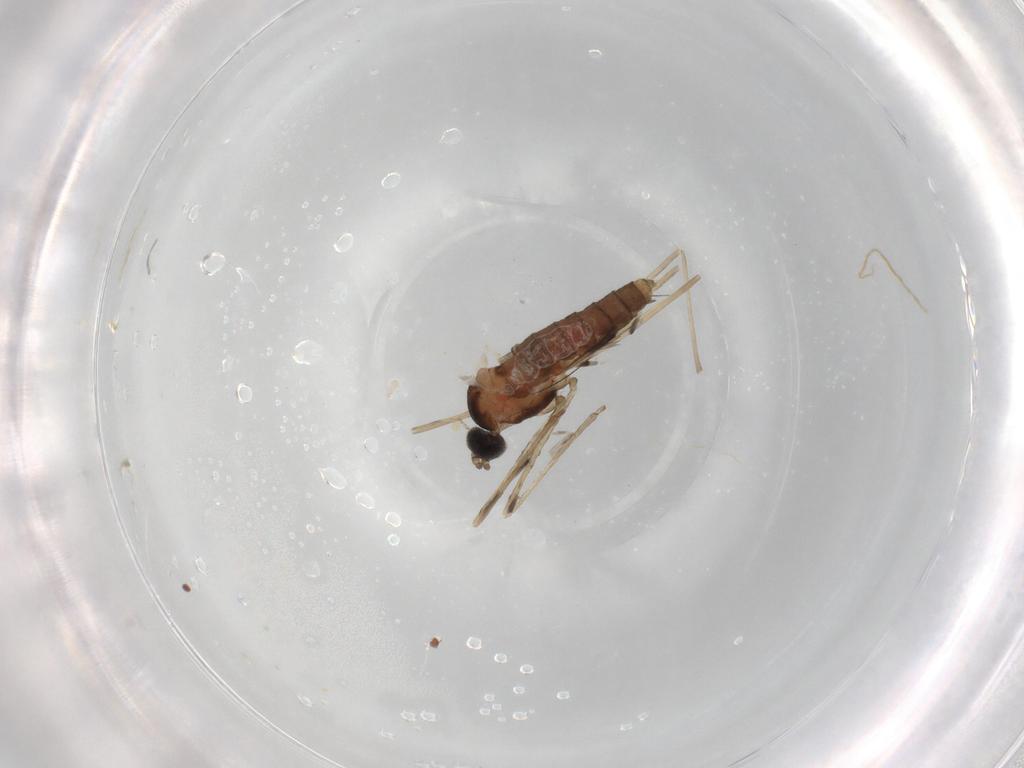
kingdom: Animalia
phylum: Arthropoda
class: Insecta
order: Diptera
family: Cecidomyiidae
